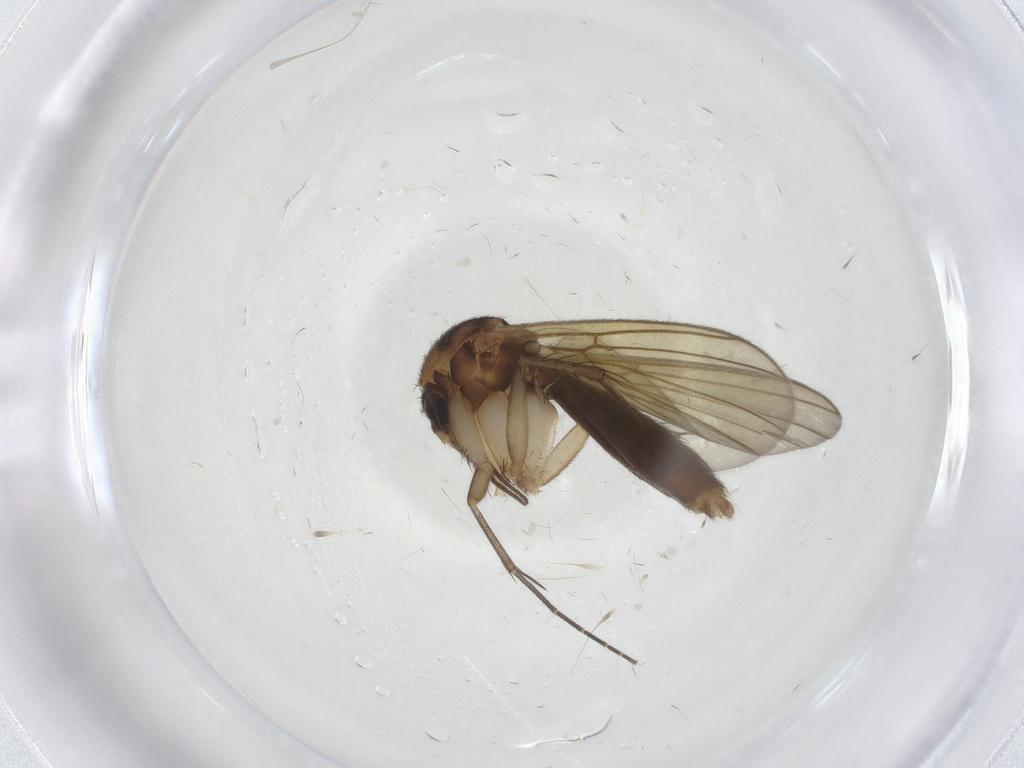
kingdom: Animalia
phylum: Arthropoda
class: Insecta
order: Diptera
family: Mycetophilidae
